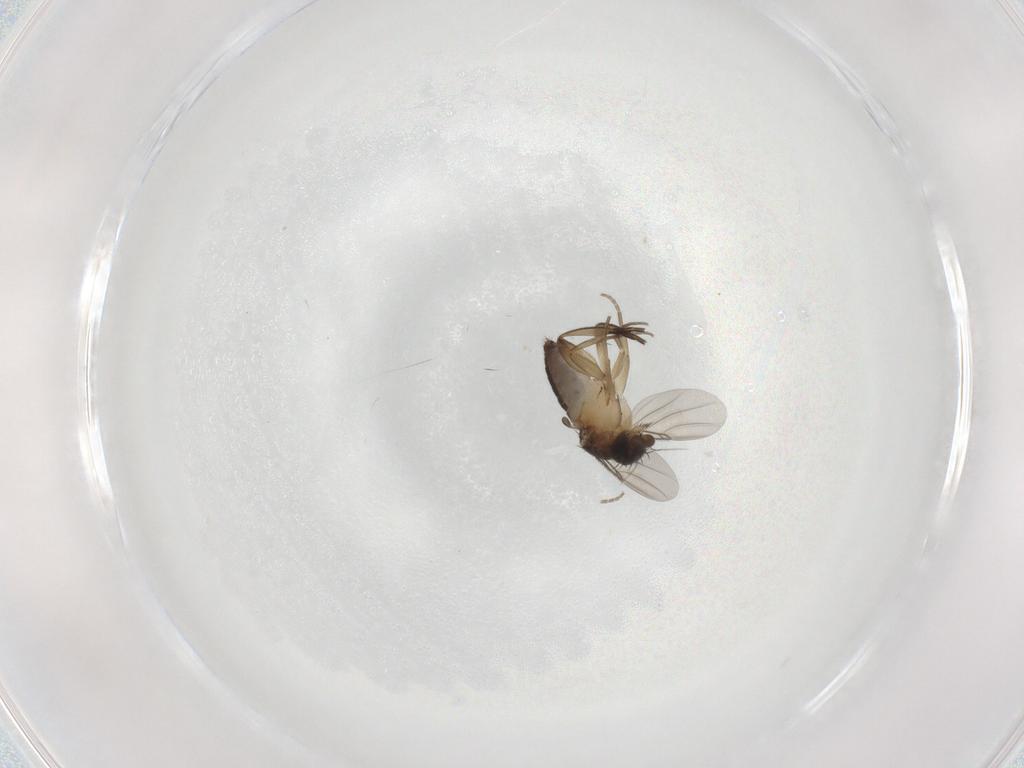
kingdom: Animalia
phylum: Arthropoda
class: Insecta
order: Diptera
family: Phoridae
